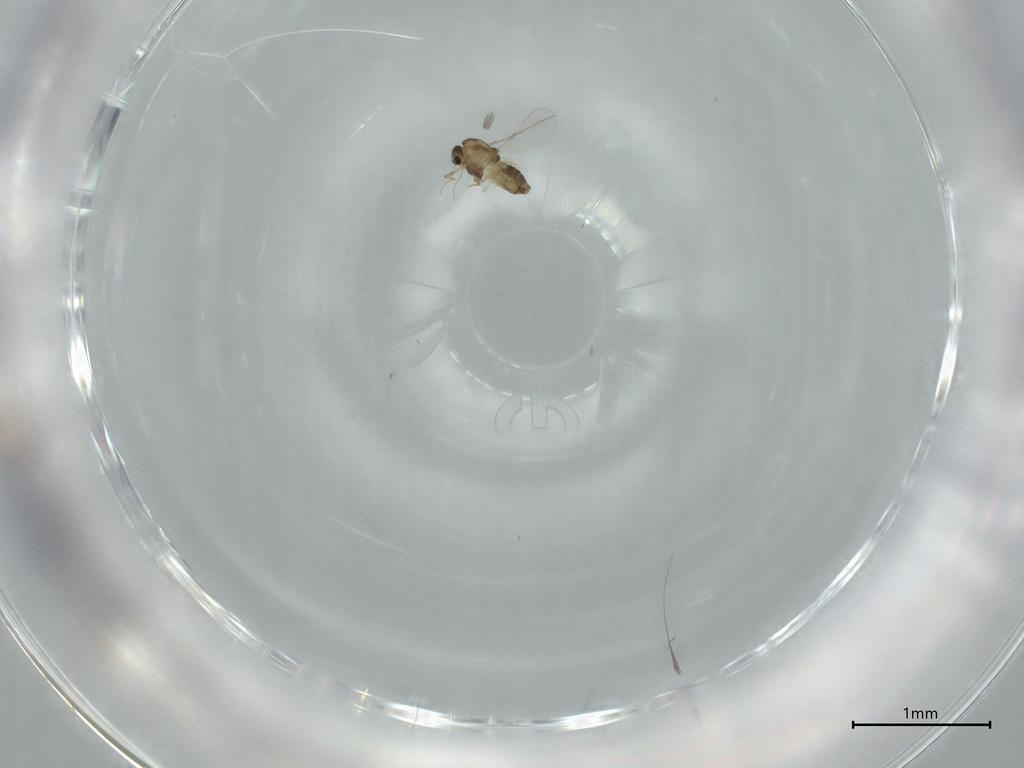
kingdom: Animalia
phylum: Arthropoda
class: Insecta
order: Diptera
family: Chironomidae
